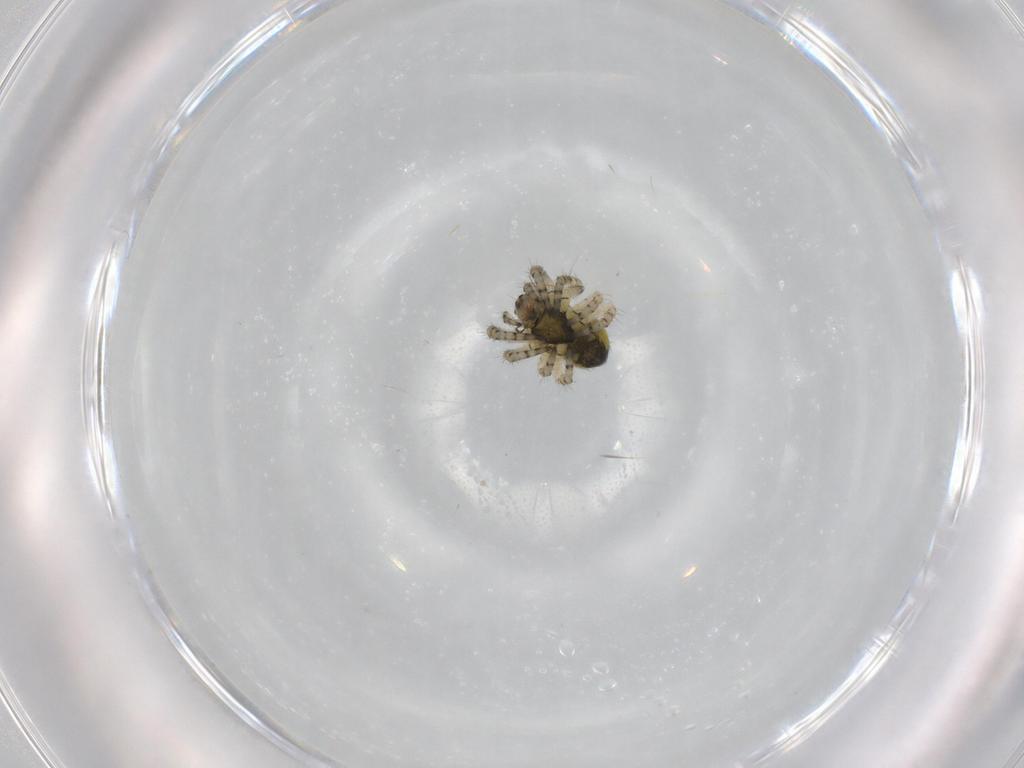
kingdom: Animalia
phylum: Arthropoda
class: Arachnida
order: Araneae
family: Araneidae
